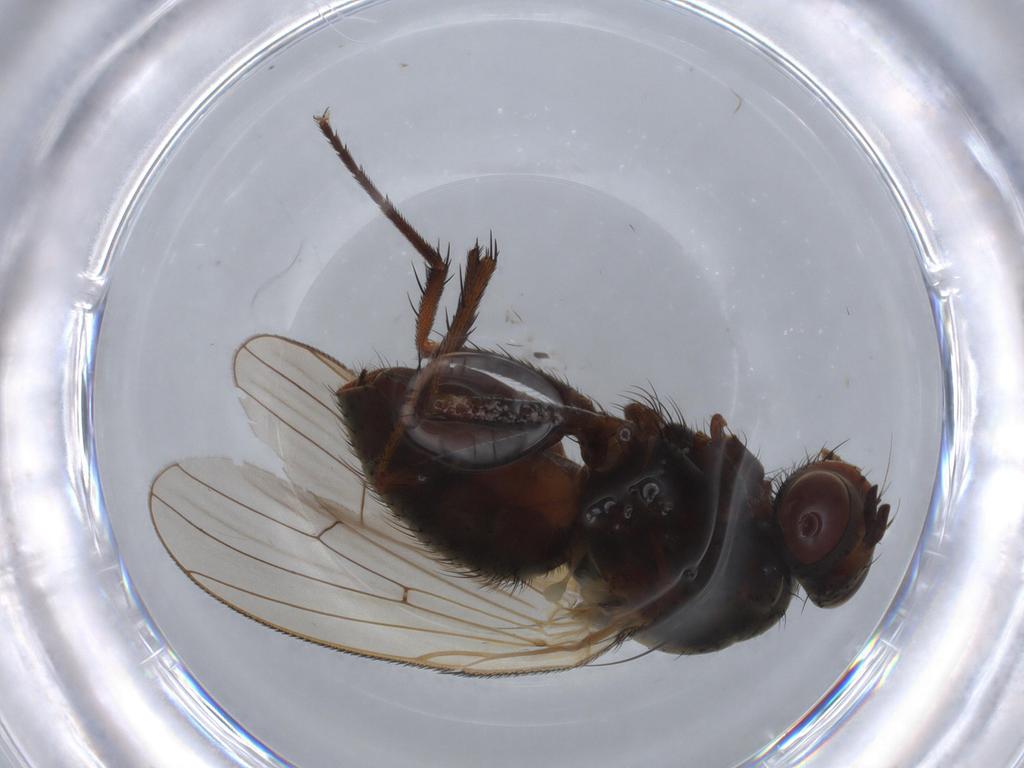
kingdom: Animalia
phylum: Arthropoda
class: Insecta
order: Diptera
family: Anthomyiidae
